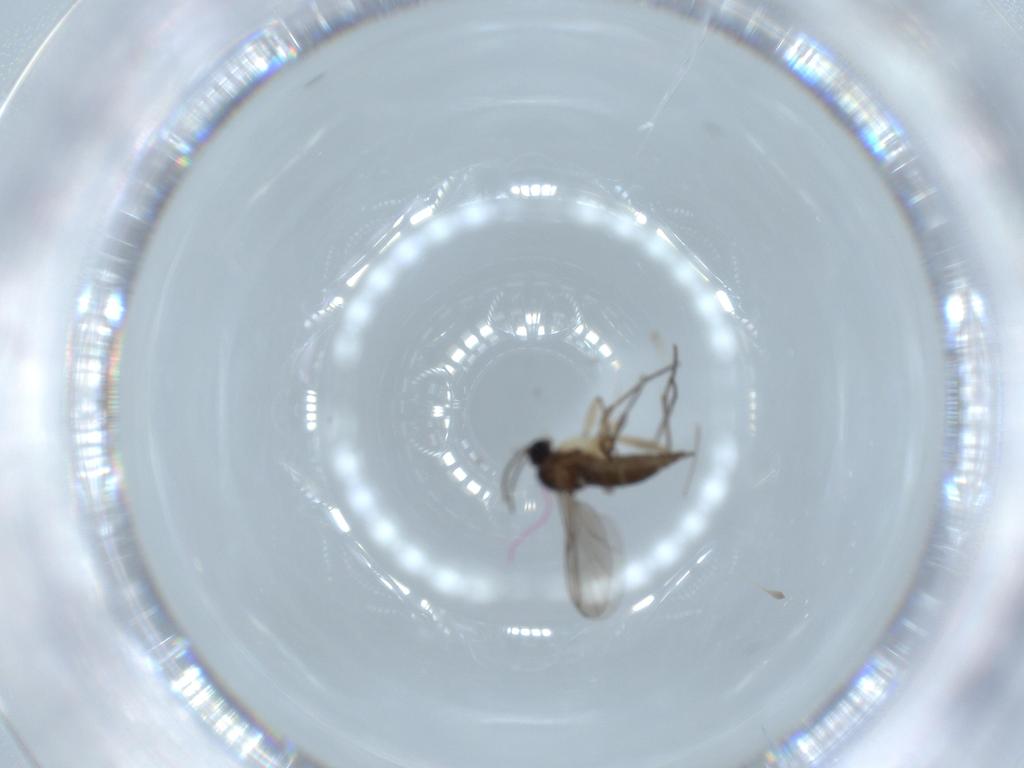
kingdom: Animalia
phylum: Arthropoda
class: Insecta
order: Diptera
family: Sciaridae
